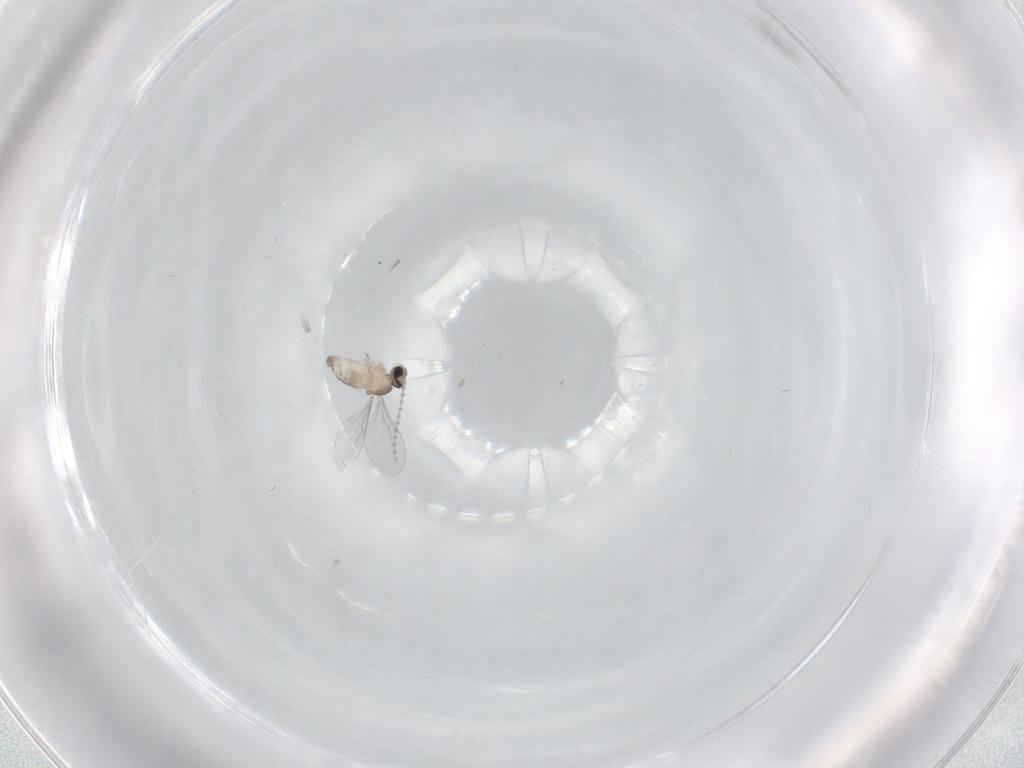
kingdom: Animalia
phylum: Arthropoda
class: Insecta
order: Diptera
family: Cecidomyiidae
